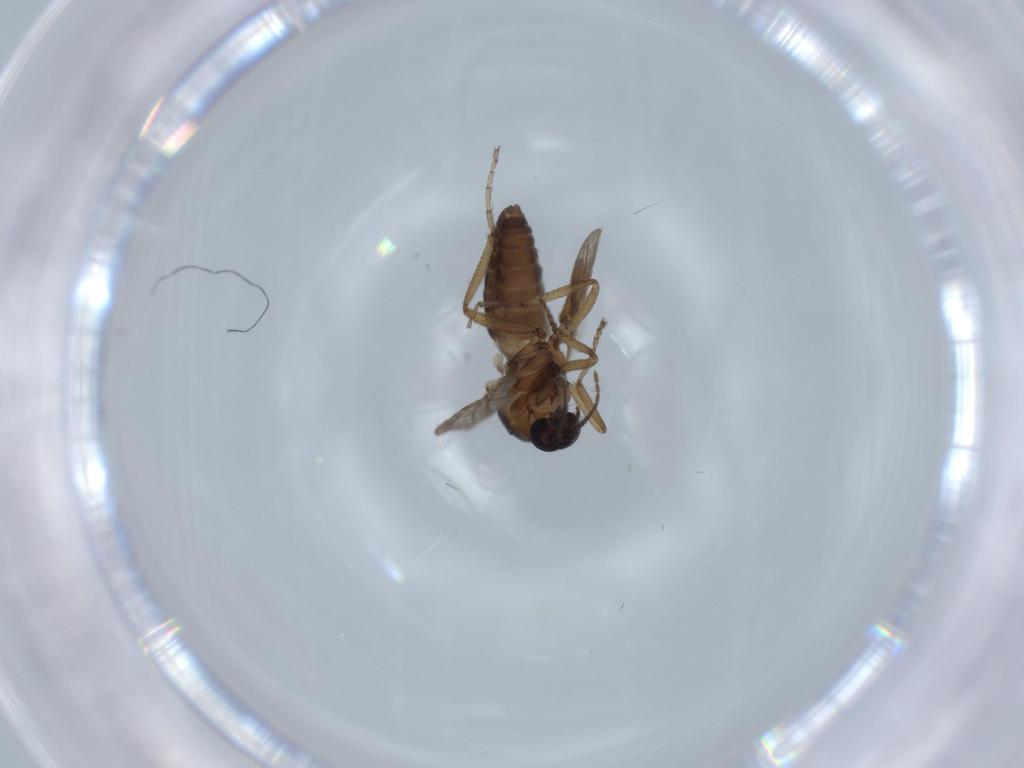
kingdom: Animalia
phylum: Arthropoda
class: Insecta
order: Diptera
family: Ceratopogonidae
